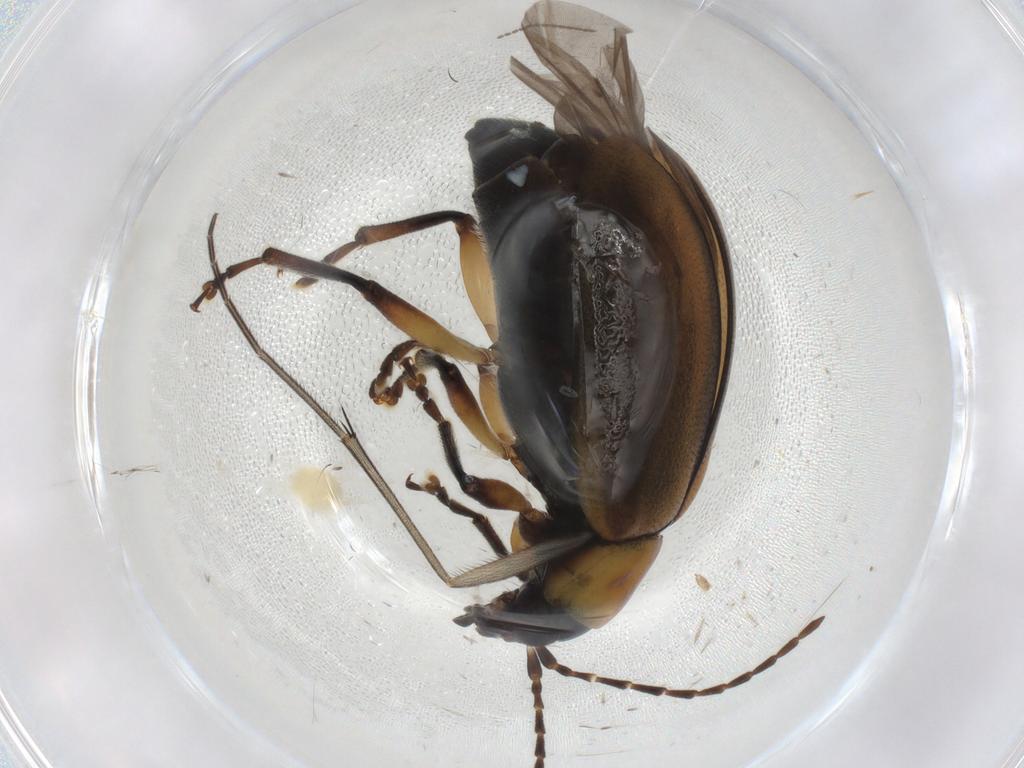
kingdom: Animalia
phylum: Arthropoda
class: Insecta
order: Coleoptera
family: Chrysomelidae
